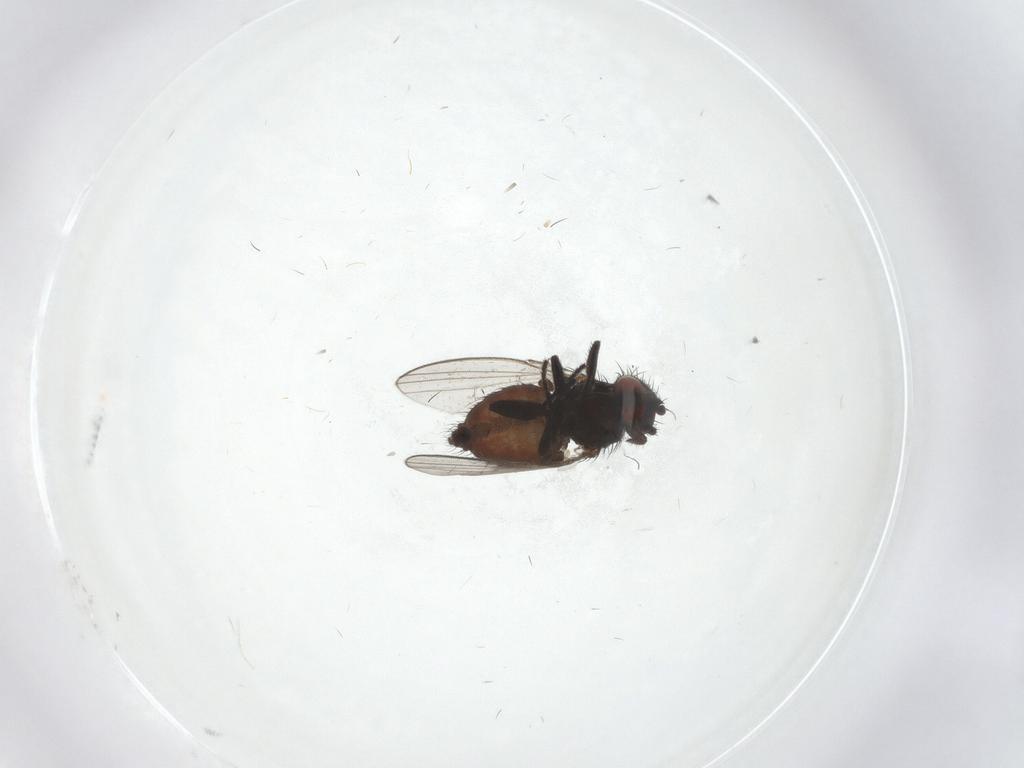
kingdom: Animalia
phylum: Arthropoda
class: Insecta
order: Diptera
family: Milichiidae
